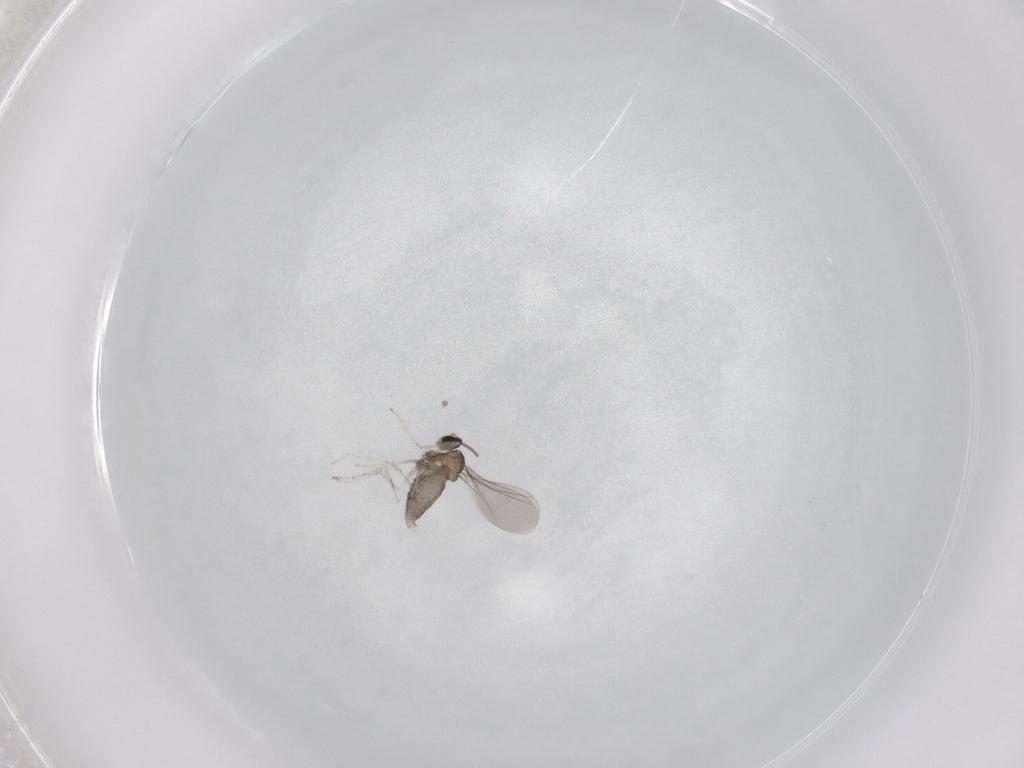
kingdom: Animalia
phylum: Arthropoda
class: Insecta
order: Diptera
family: Cecidomyiidae
